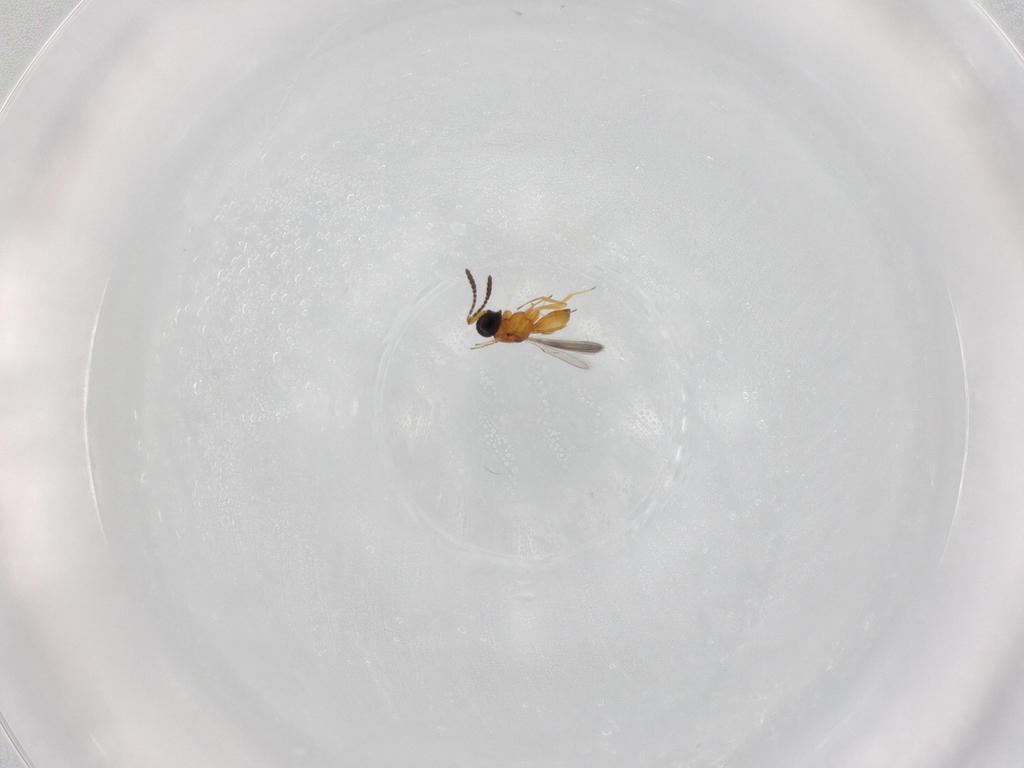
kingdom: Animalia
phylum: Arthropoda
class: Insecta
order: Hymenoptera
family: Scelionidae
